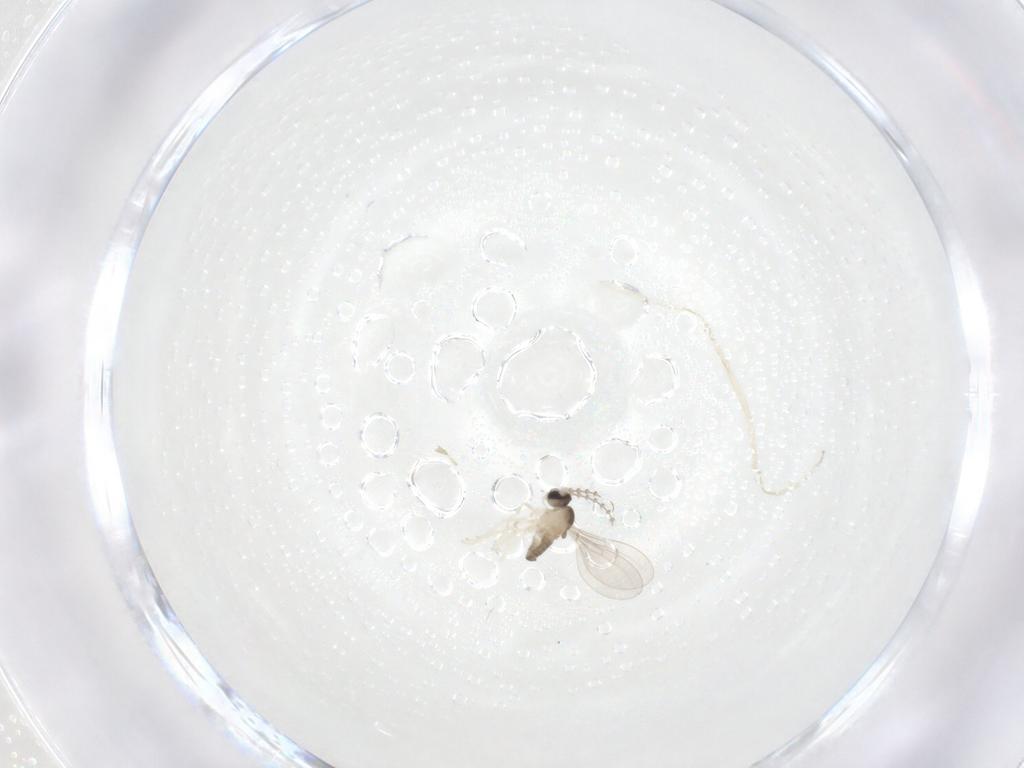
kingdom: Animalia
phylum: Arthropoda
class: Insecta
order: Diptera
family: Cecidomyiidae
